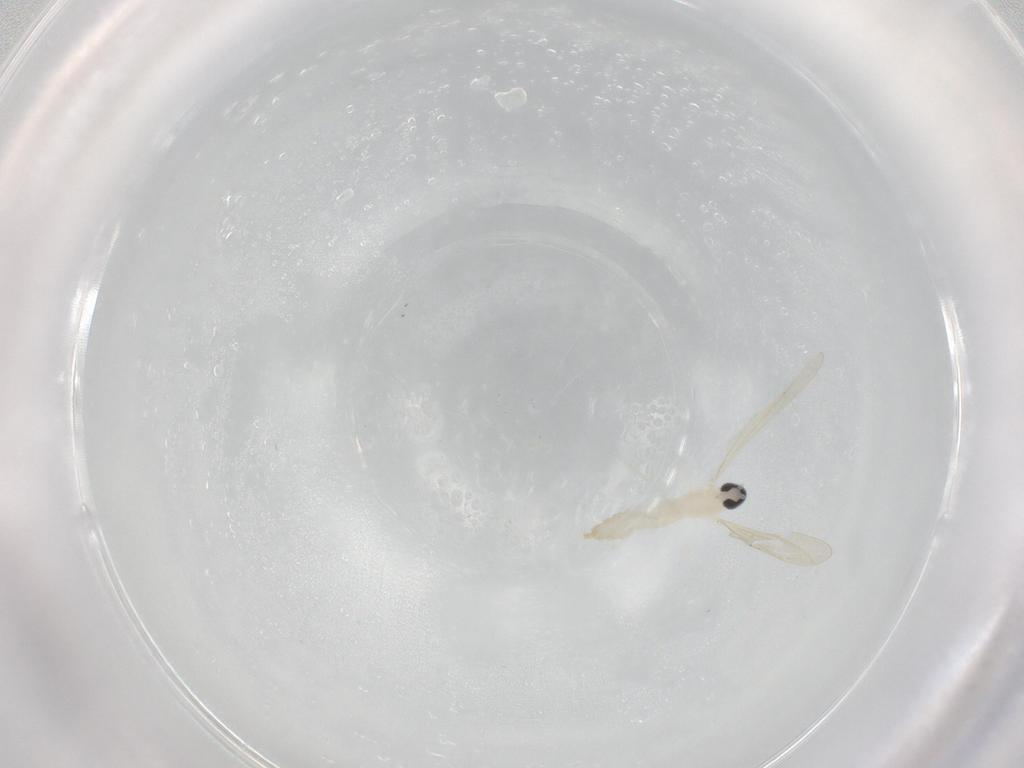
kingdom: Animalia
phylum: Arthropoda
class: Insecta
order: Diptera
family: Cecidomyiidae
